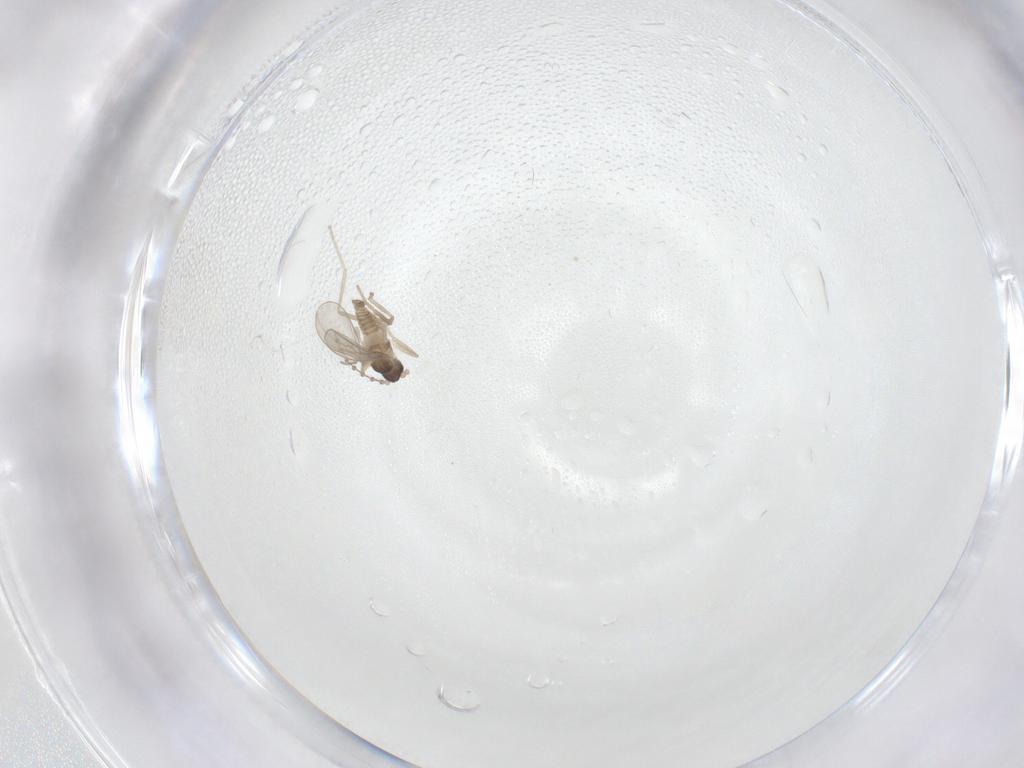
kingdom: Animalia
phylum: Arthropoda
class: Insecta
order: Diptera
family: Cecidomyiidae
